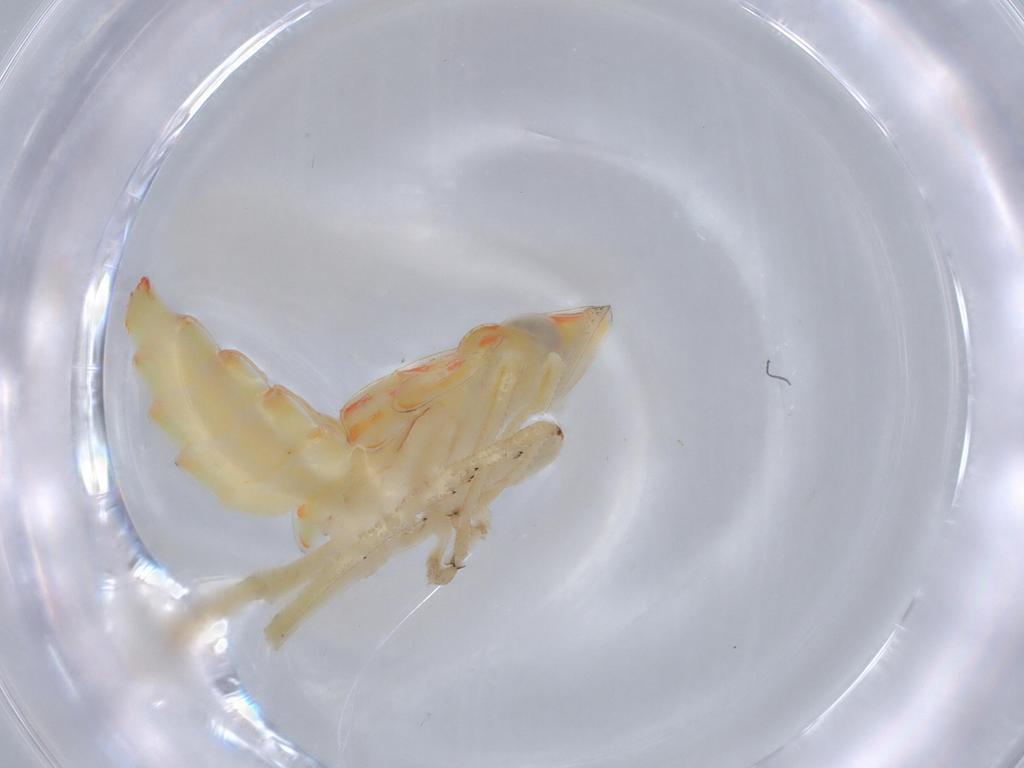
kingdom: Animalia
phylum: Arthropoda
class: Insecta
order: Hemiptera
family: Tropiduchidae
